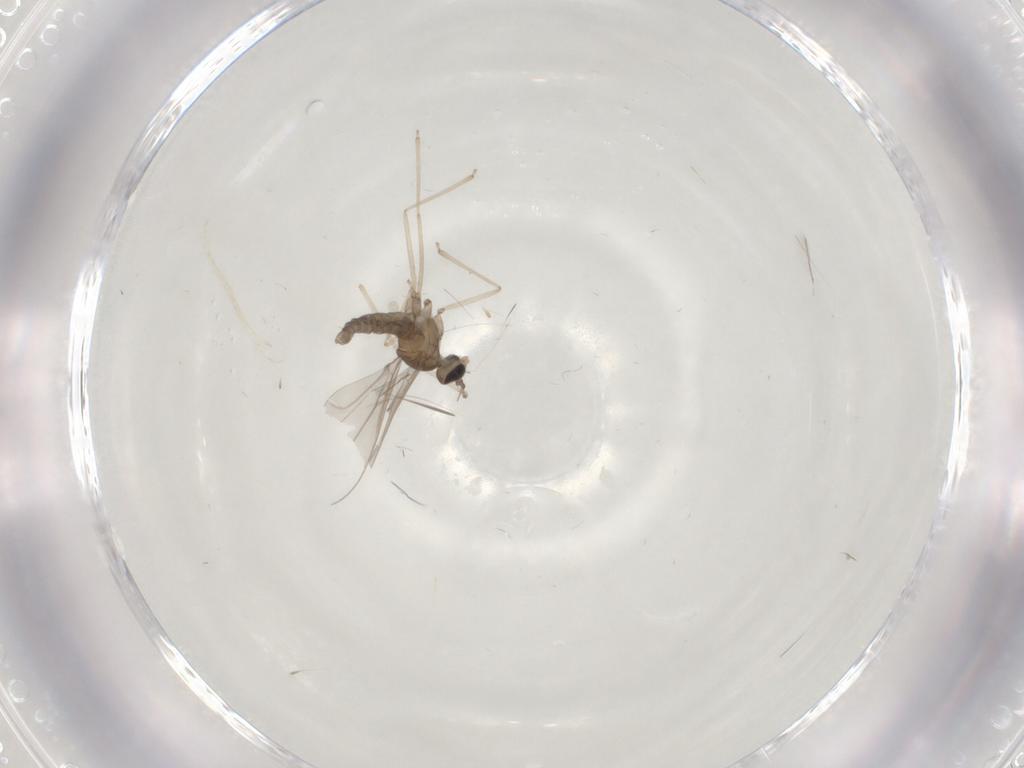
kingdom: Animalia
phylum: Arthropoda
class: Insecta
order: Diptera
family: Cecidomyiidae
